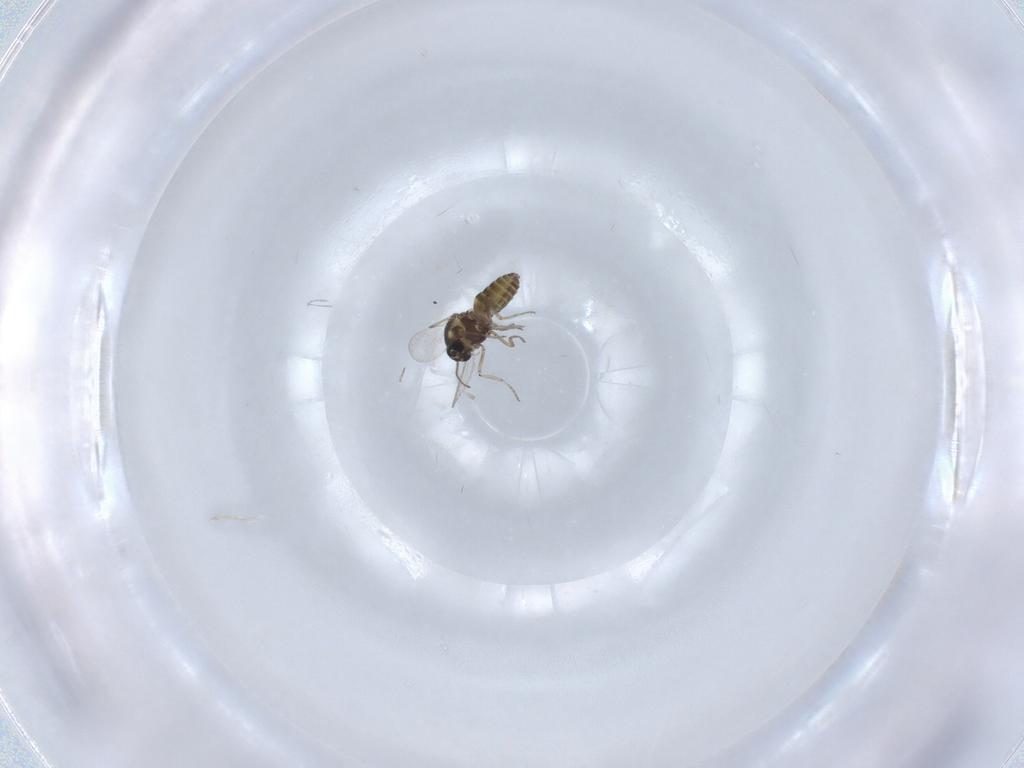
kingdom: Animalia
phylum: Arthropoda
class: Insecta
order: Diptera
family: Ceratopogonidae
